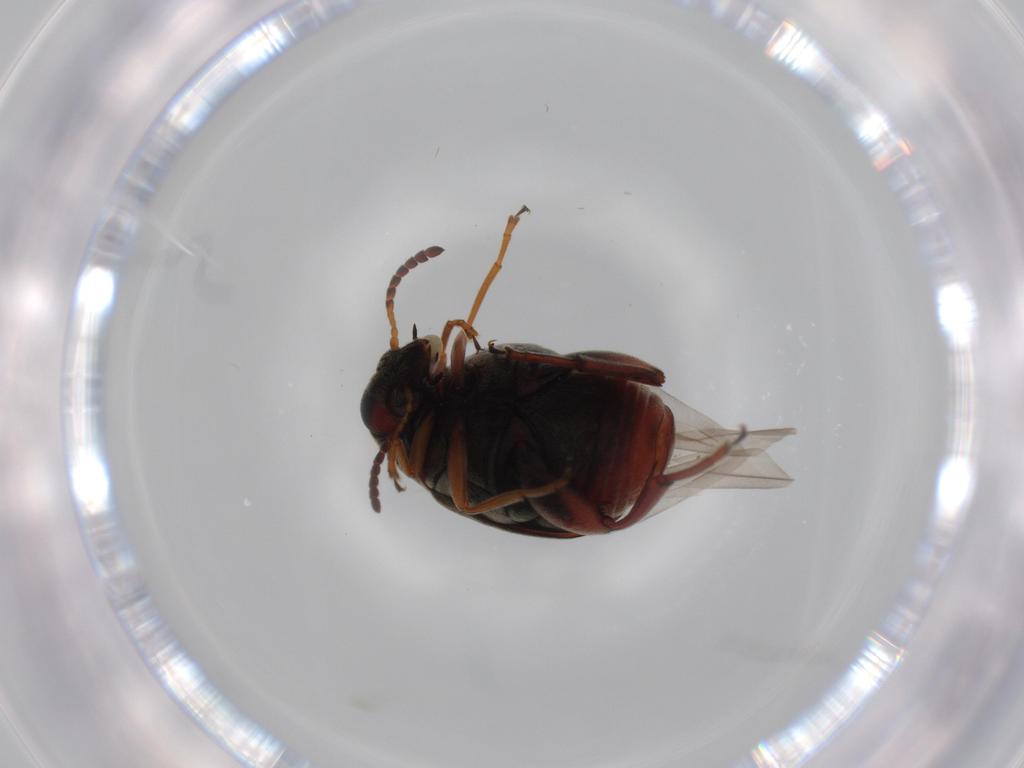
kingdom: Animalia
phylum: Arthropoda
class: Insecta
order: Coleoptera
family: Chrysomelidae
